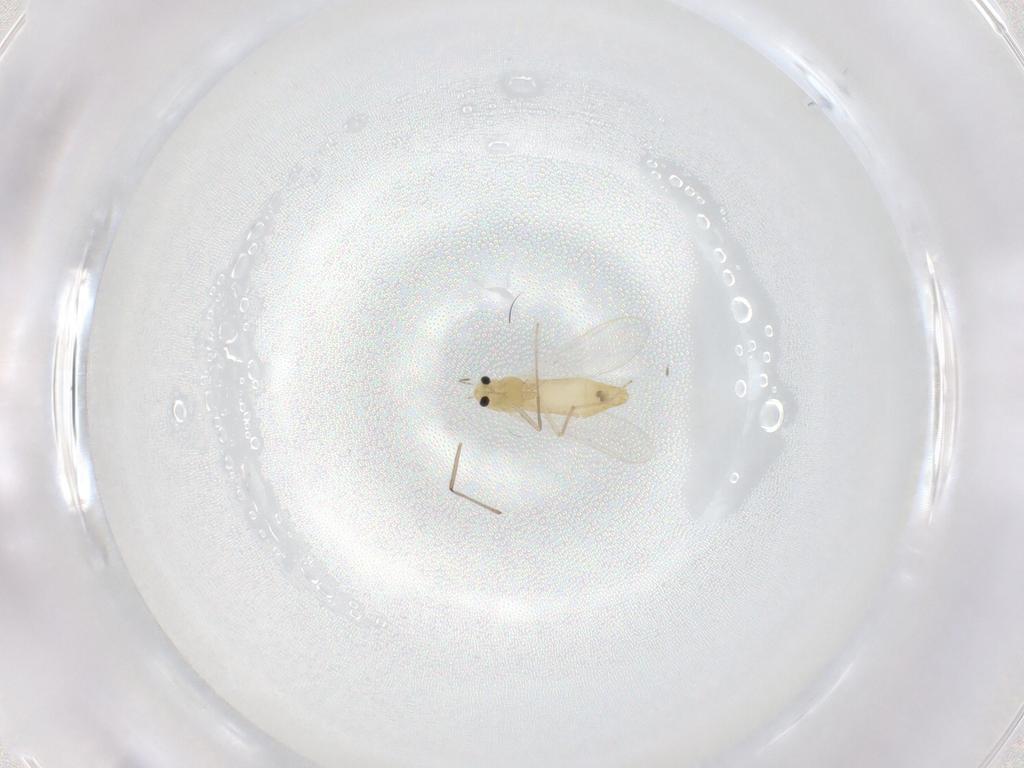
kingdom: Animalia
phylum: Arthropoda
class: Insecta
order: Diptera
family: Chironomidae
